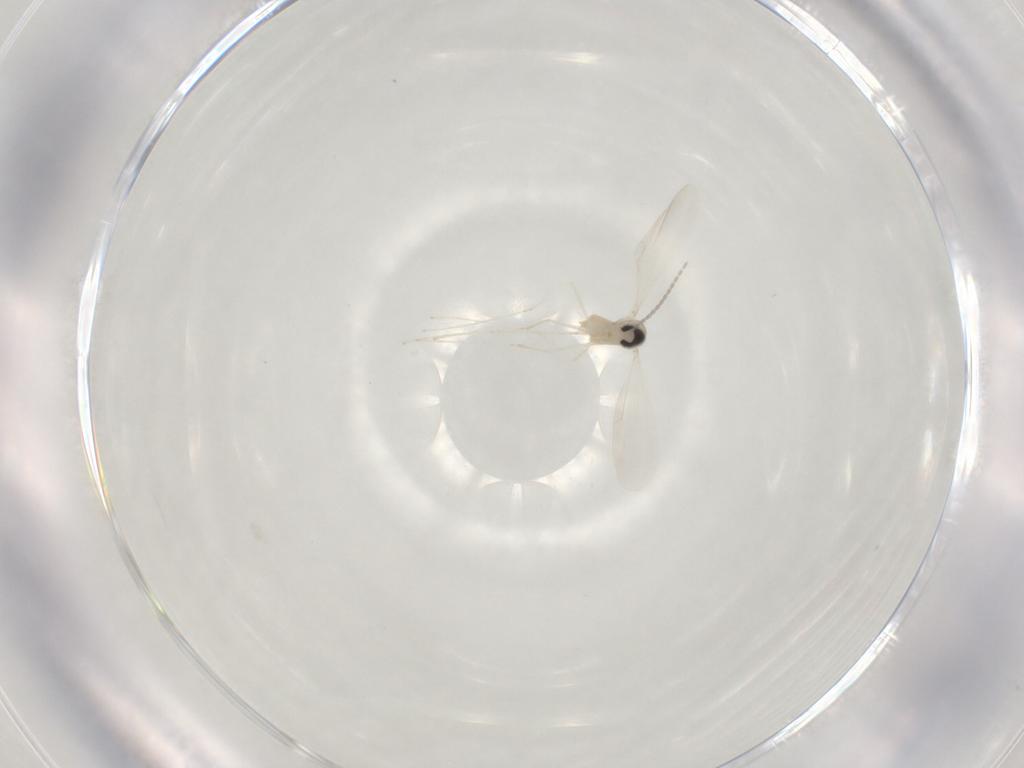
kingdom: Animalia
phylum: Arthropoda
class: Insecta
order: Diptera
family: Cecidomyiidae
